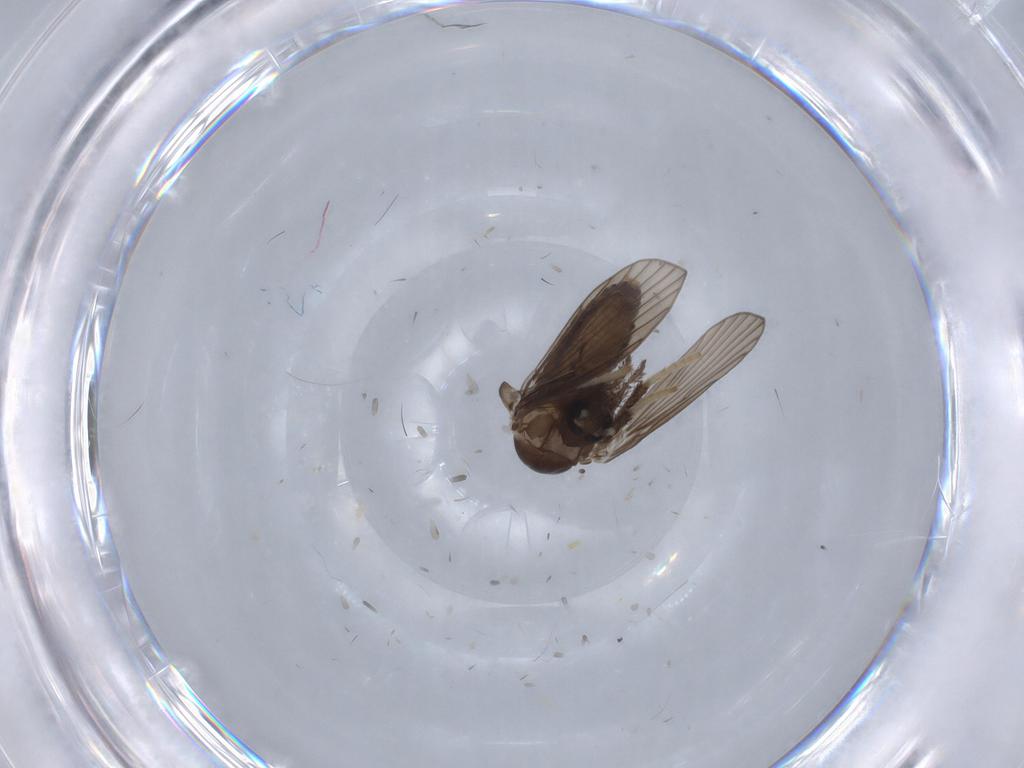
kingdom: Animalia
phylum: Arthropoda
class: Insecta
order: Diptera
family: Psychodidae
